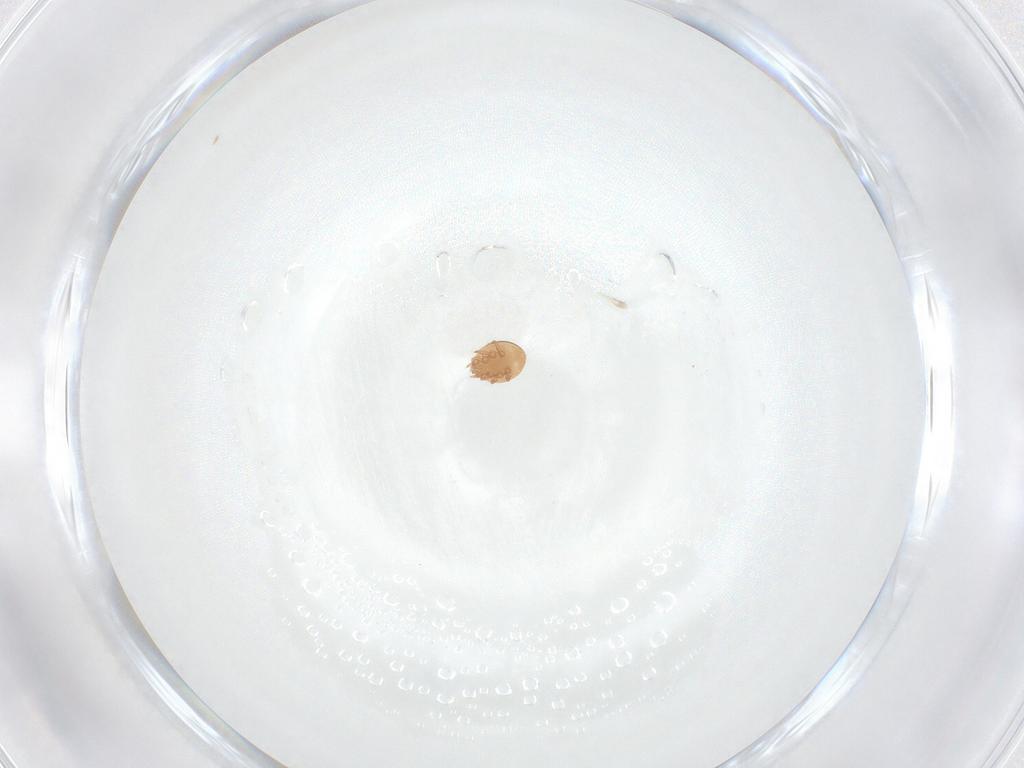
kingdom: Animalia
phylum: Arthropoda
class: Arachnida
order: Mesostigmata
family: Trematuridae
